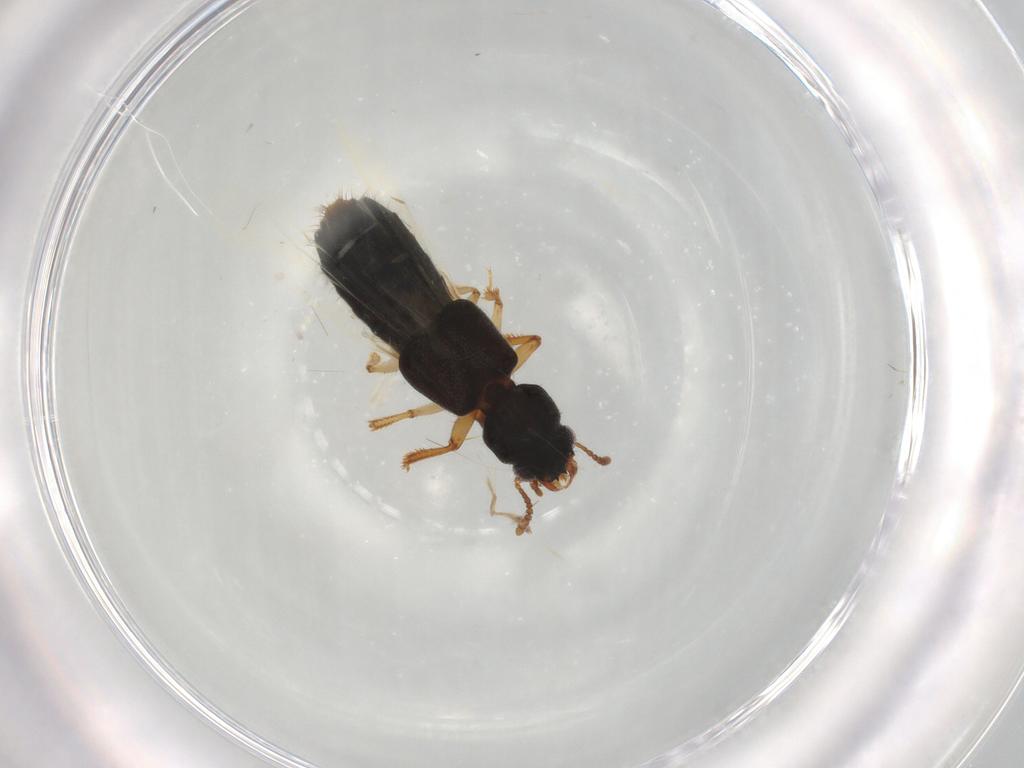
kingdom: Animalia
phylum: Arthropoda
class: Insecta
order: Coleoptera
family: Staphylinidae
